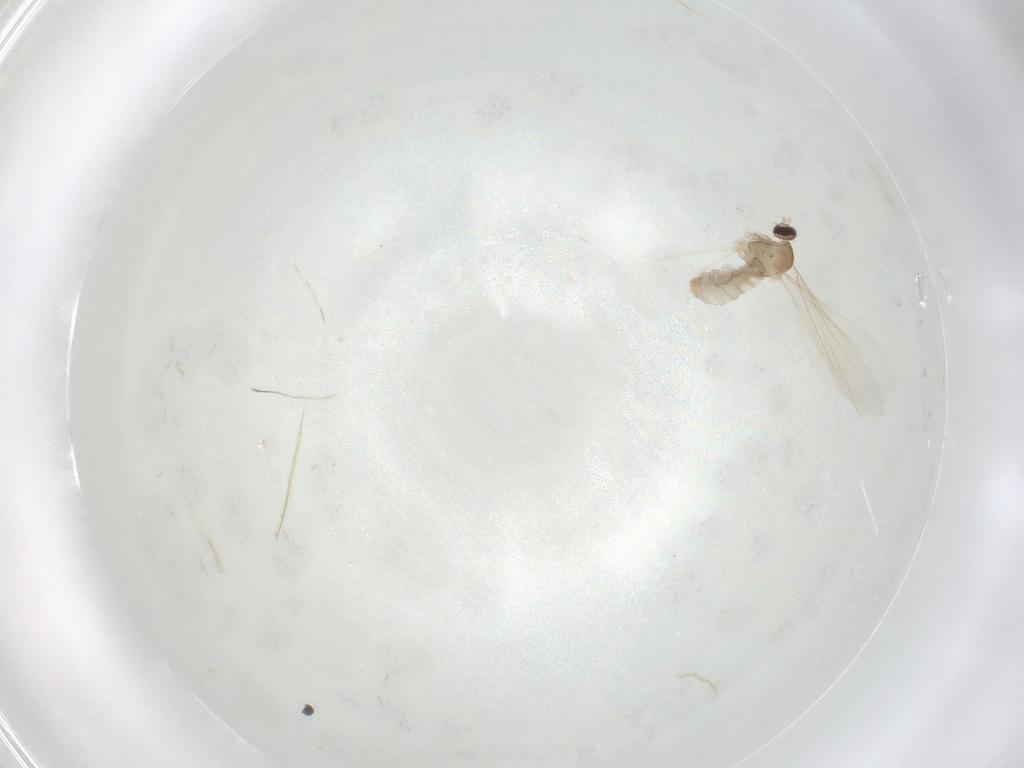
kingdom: Animalia
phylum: Arthropoda
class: Insecta
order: Diptera
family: Cecidomyiidae
